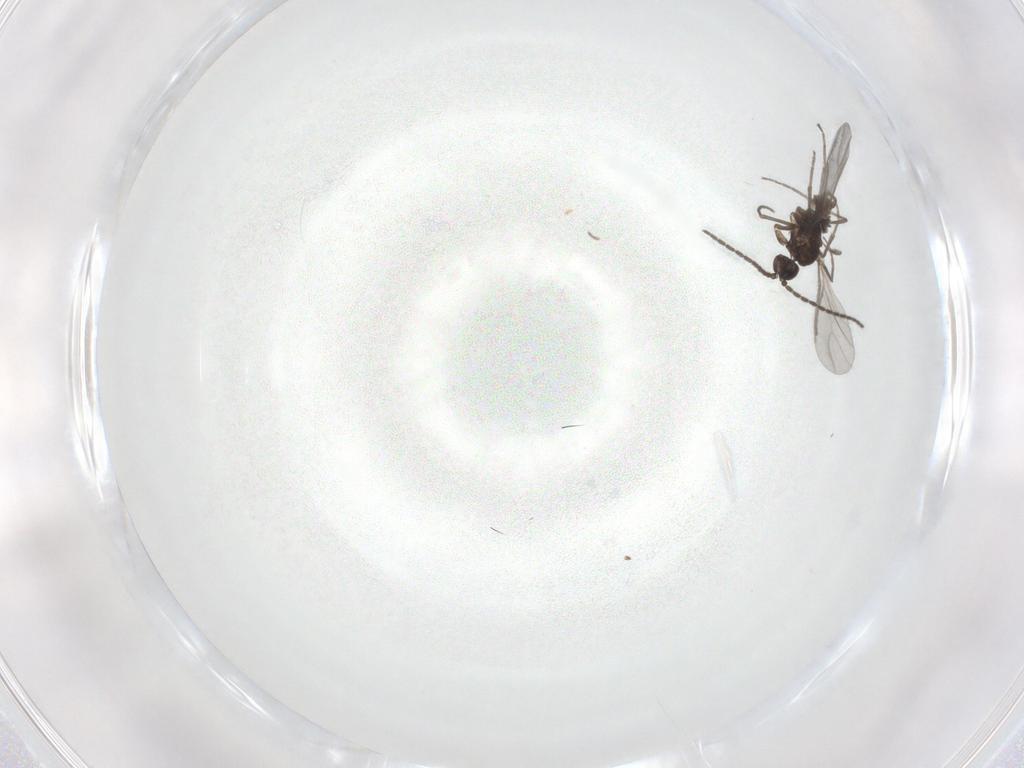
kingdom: Animalia
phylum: Arthropoda
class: Insecta
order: Diptera
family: Sciaridae
